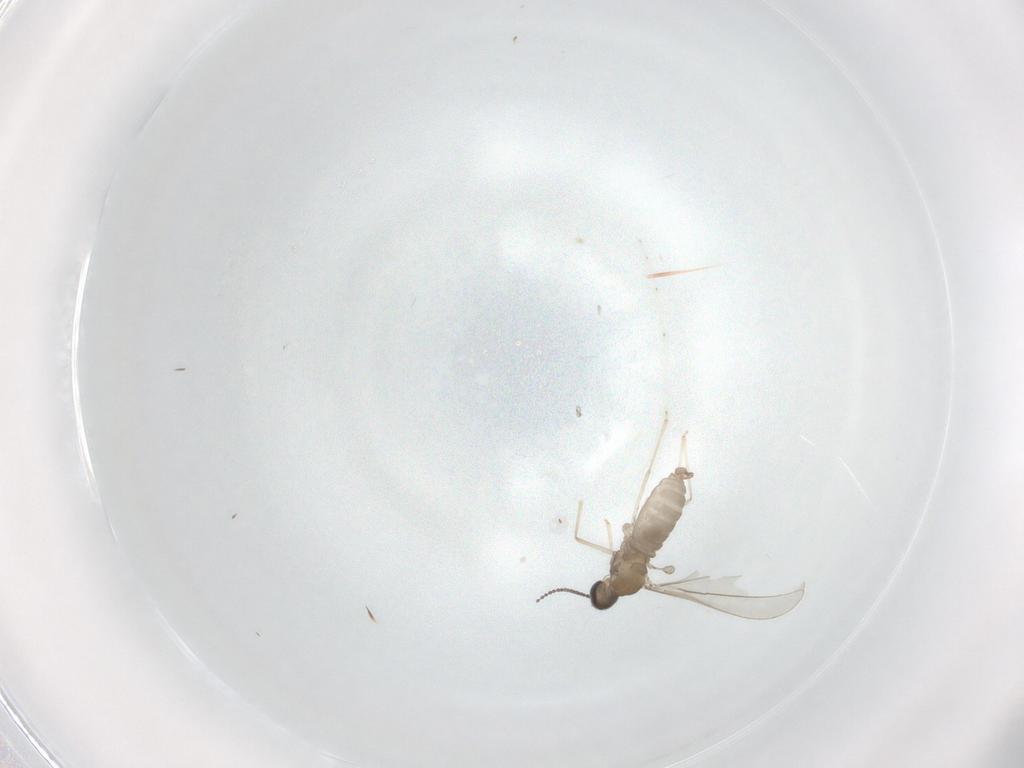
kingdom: Animalia
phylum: Arthropoda
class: Insecta
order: Diptera
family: Cecidomyiidae
